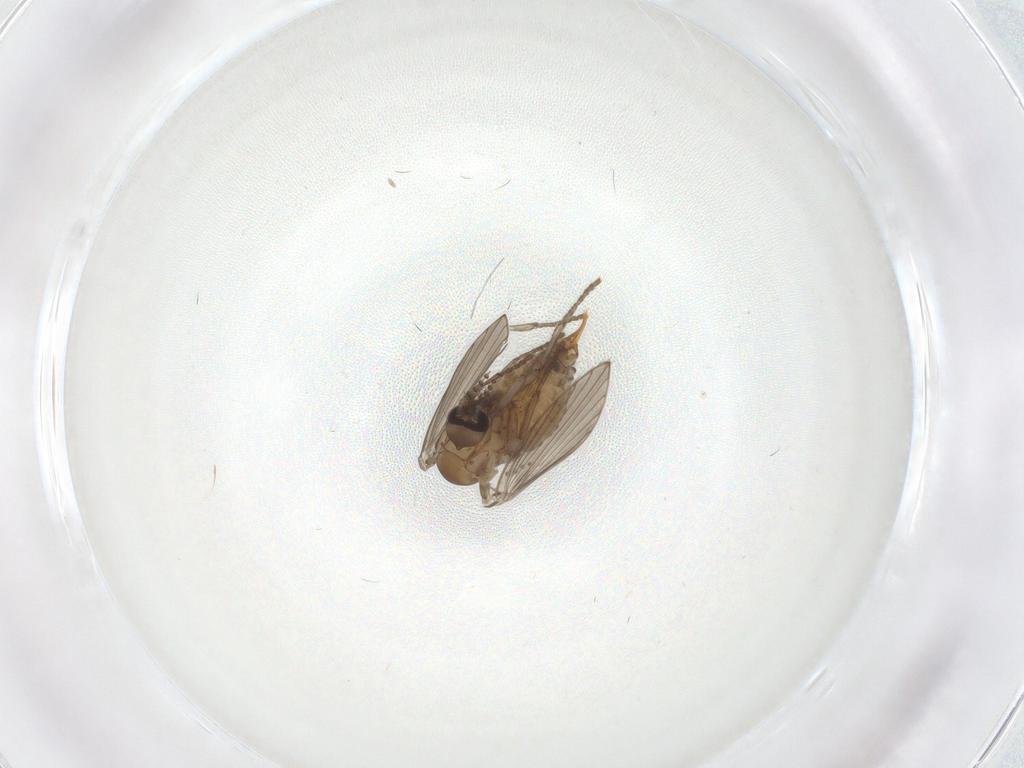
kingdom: Animalia
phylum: Arthropoda
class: Insecta
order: Diptera
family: Psychodidae
